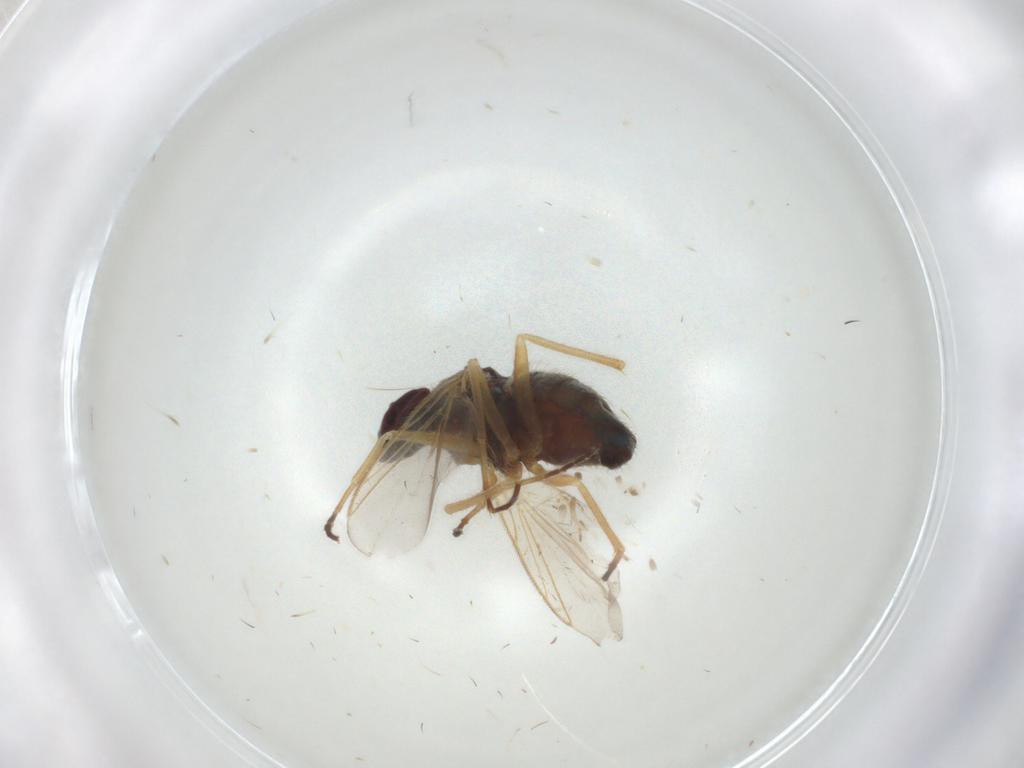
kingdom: Animalia
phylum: Arthropoda
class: Insecta
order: Diptera
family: Dolichopodidae
